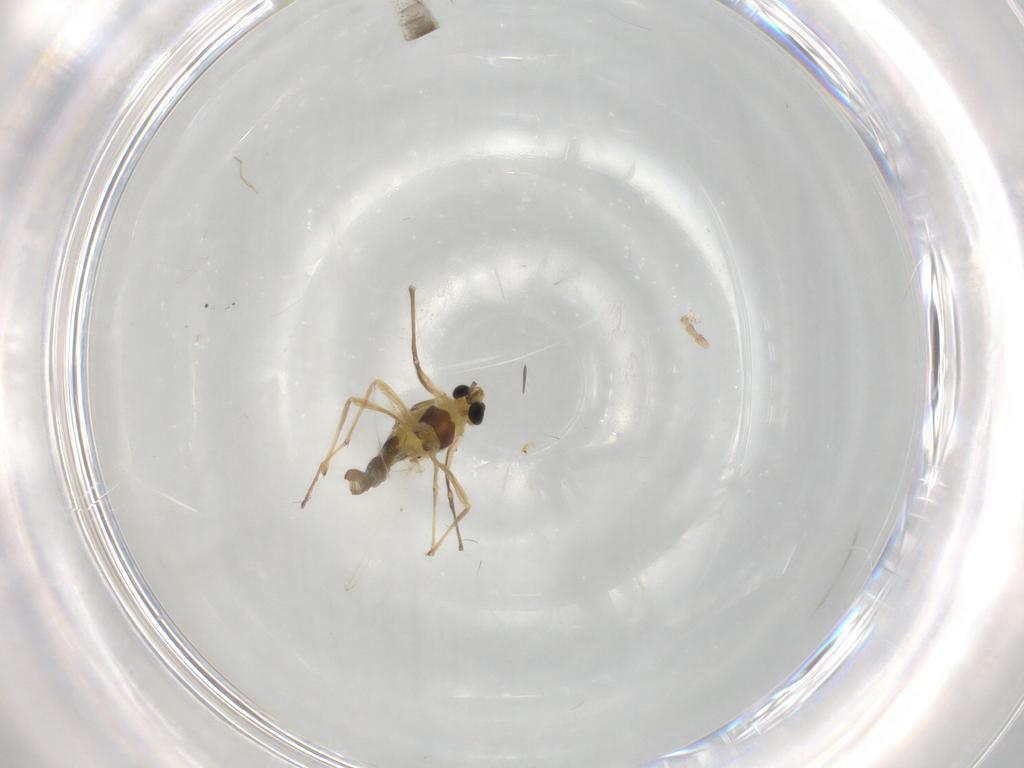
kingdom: Animalia
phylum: Arthropoda
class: Insecta
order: Diptera
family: Chironomidae
